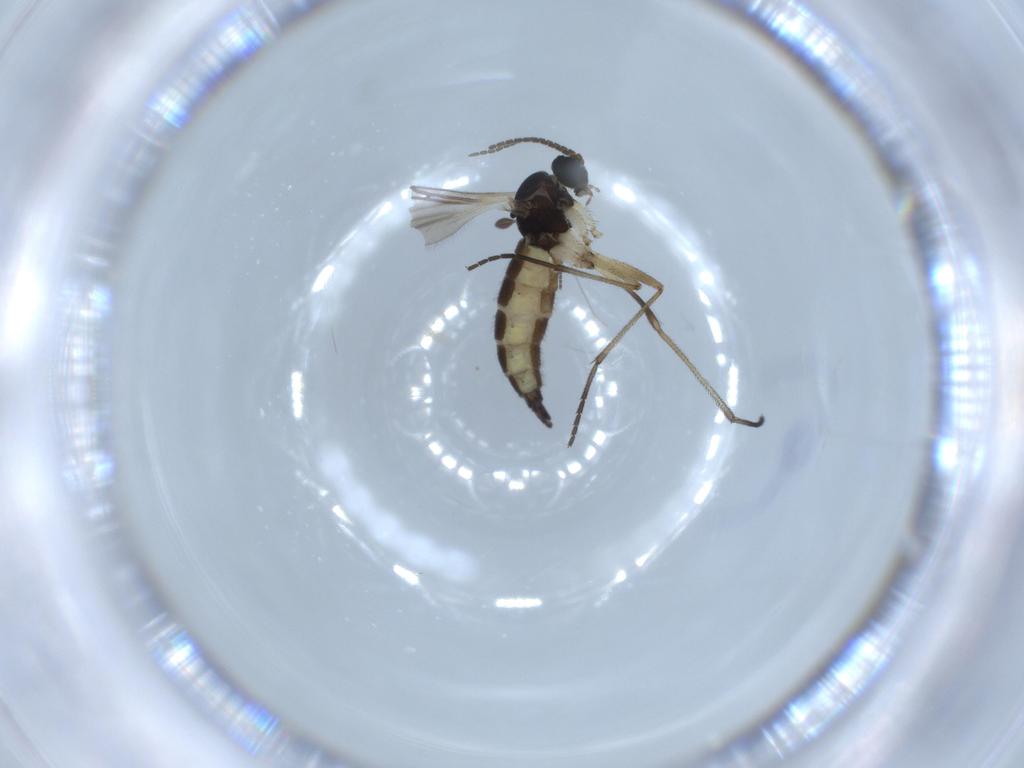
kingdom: Animalia
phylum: Arthropoda
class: Insecta
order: Diptera
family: Sciaridae
